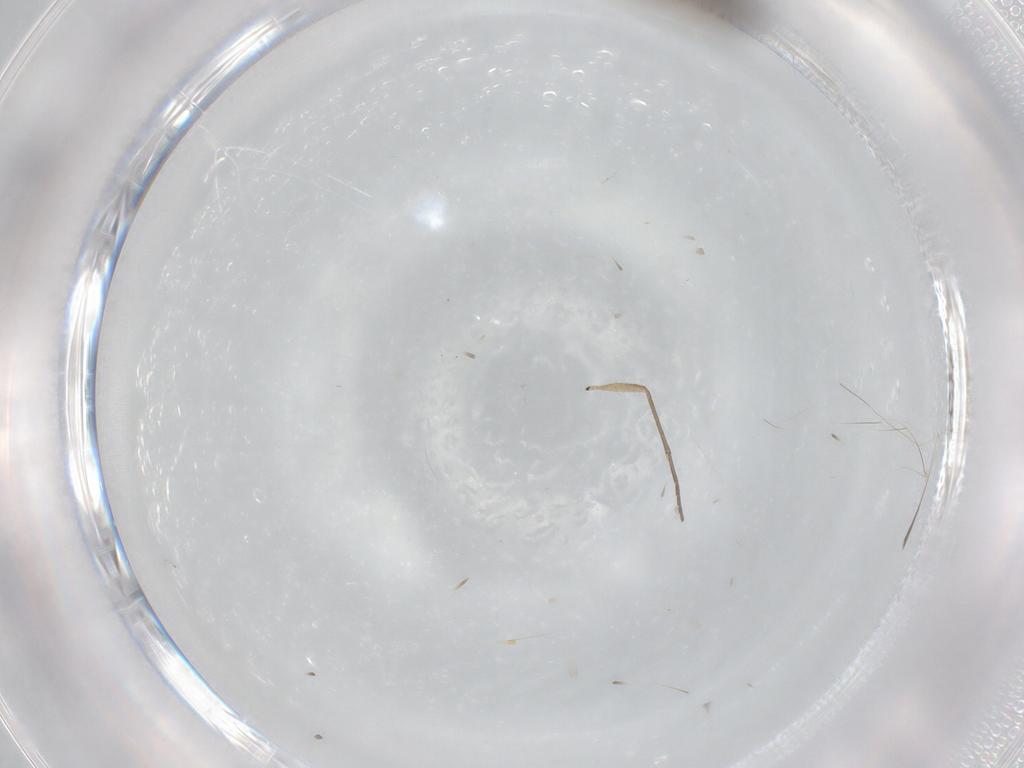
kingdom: Animalia
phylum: Arthropoda
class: Insecta
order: Diptera
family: Sciaridae
